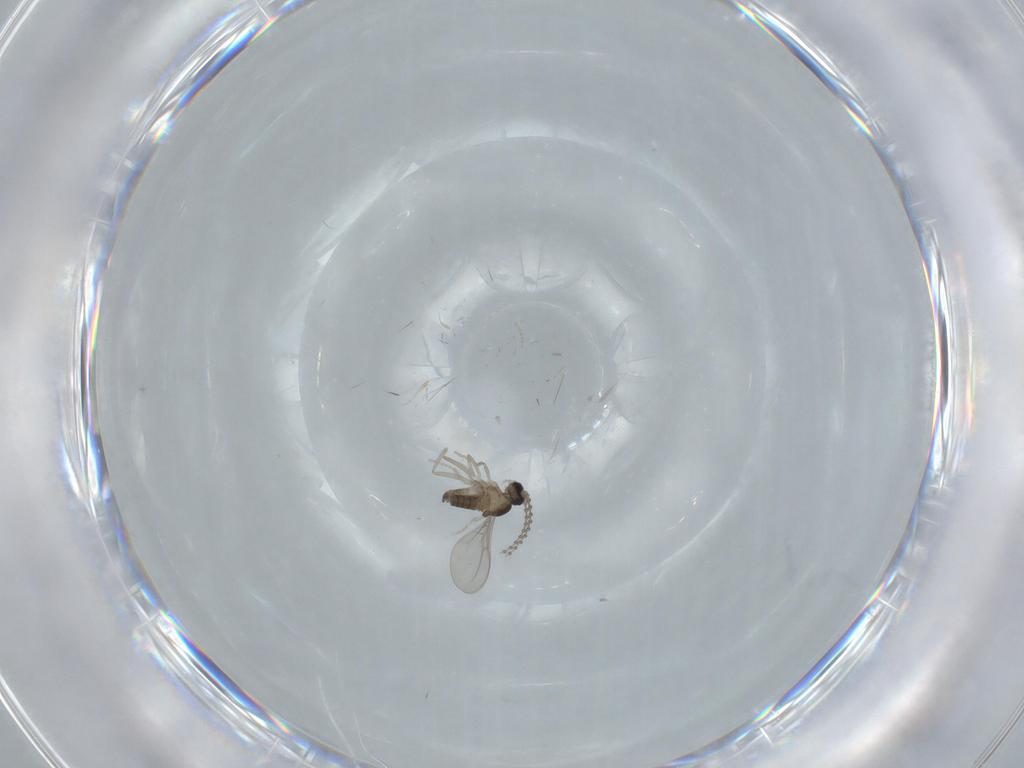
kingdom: Animalia
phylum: Arthropoda
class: Insecta
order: Diptera
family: Cecidomyiidae
